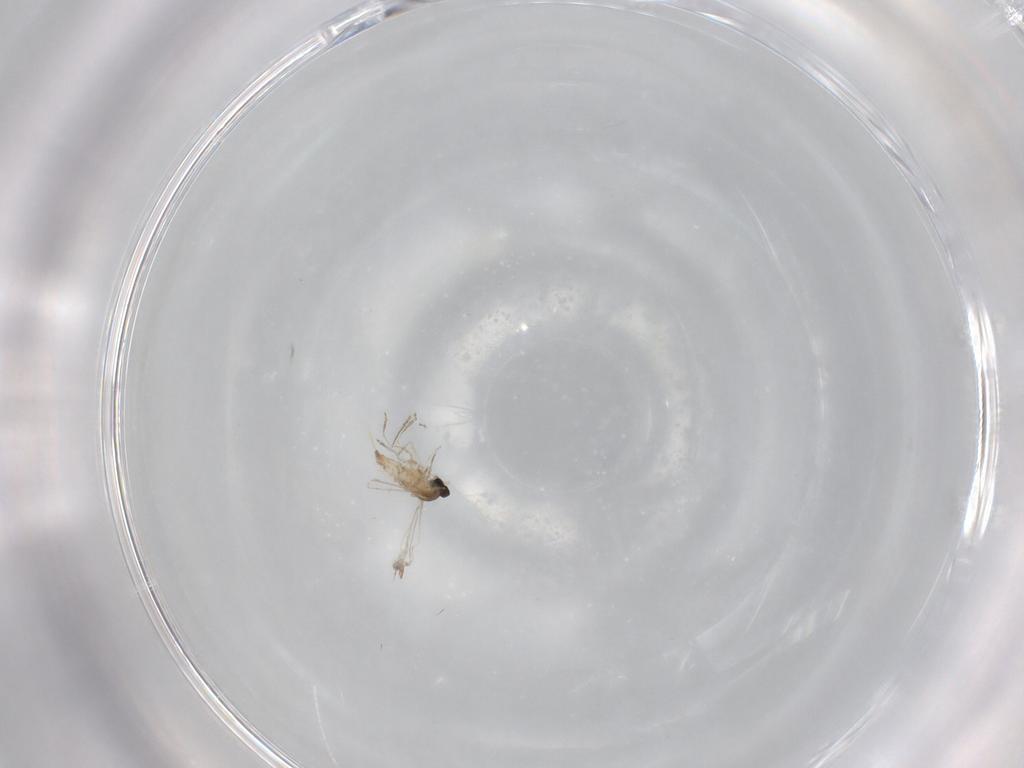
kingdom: Animalia
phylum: Arthropoda
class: Insecta
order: Diptera
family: Cecidomyiidae
